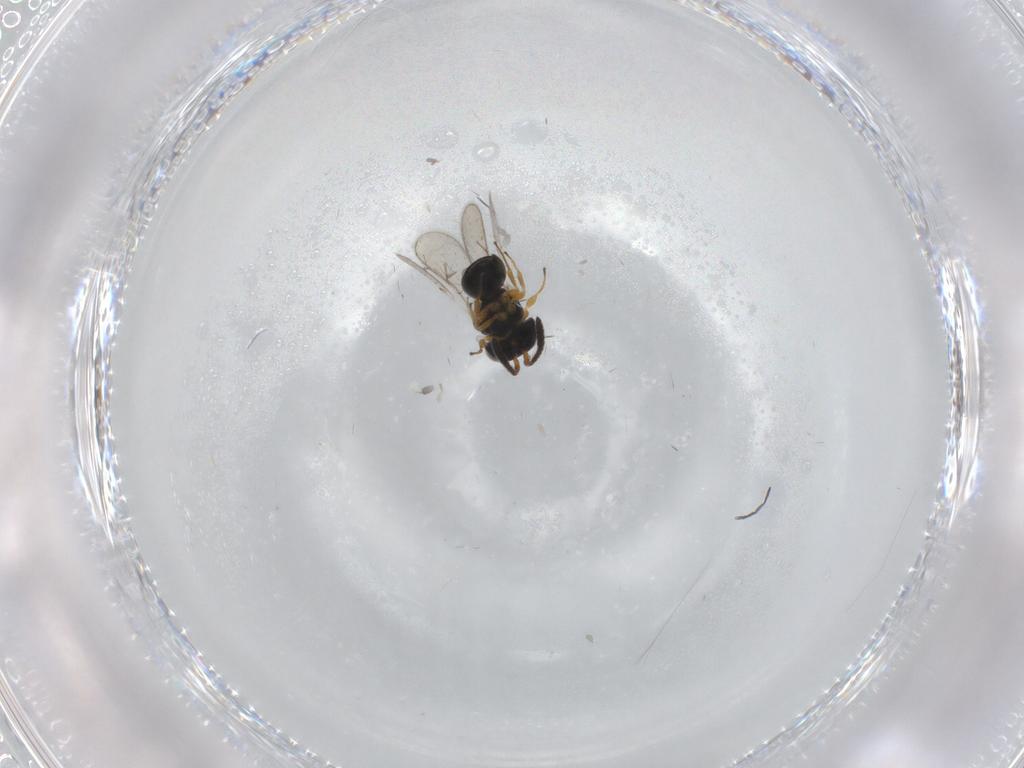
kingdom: Animalia
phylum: Arthropoda
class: Insecta
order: Hymenoptera
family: Scelionidae
